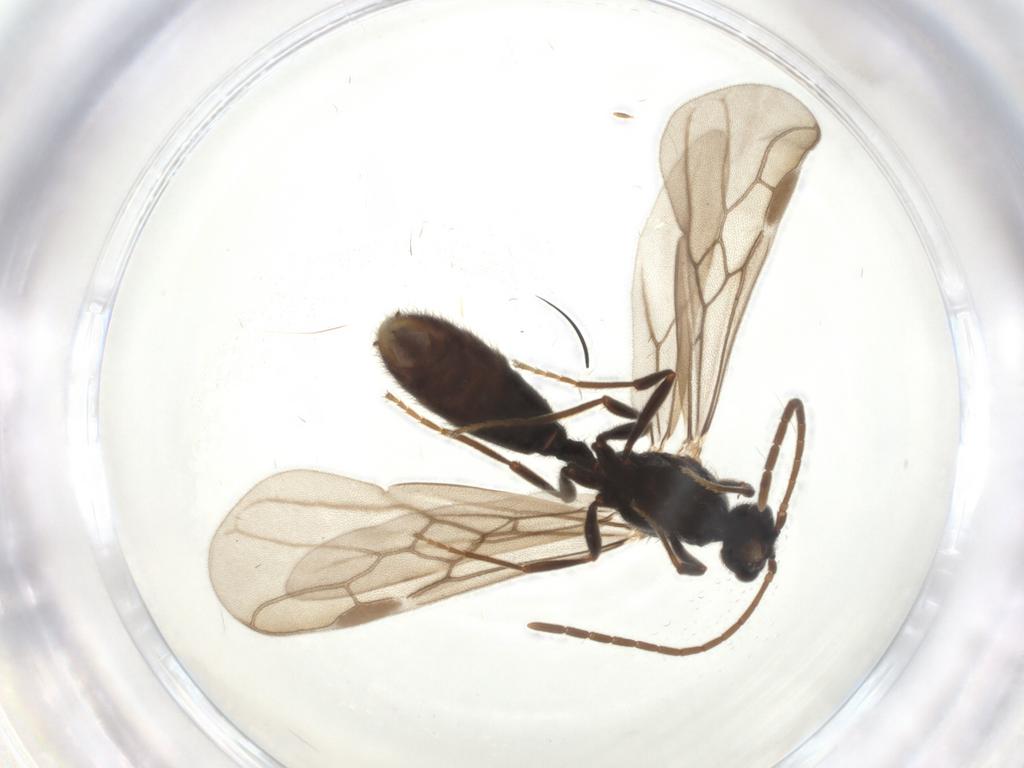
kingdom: Animalia
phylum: Arthropoda
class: Insecta
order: Hymenoptera
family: Formicidae
